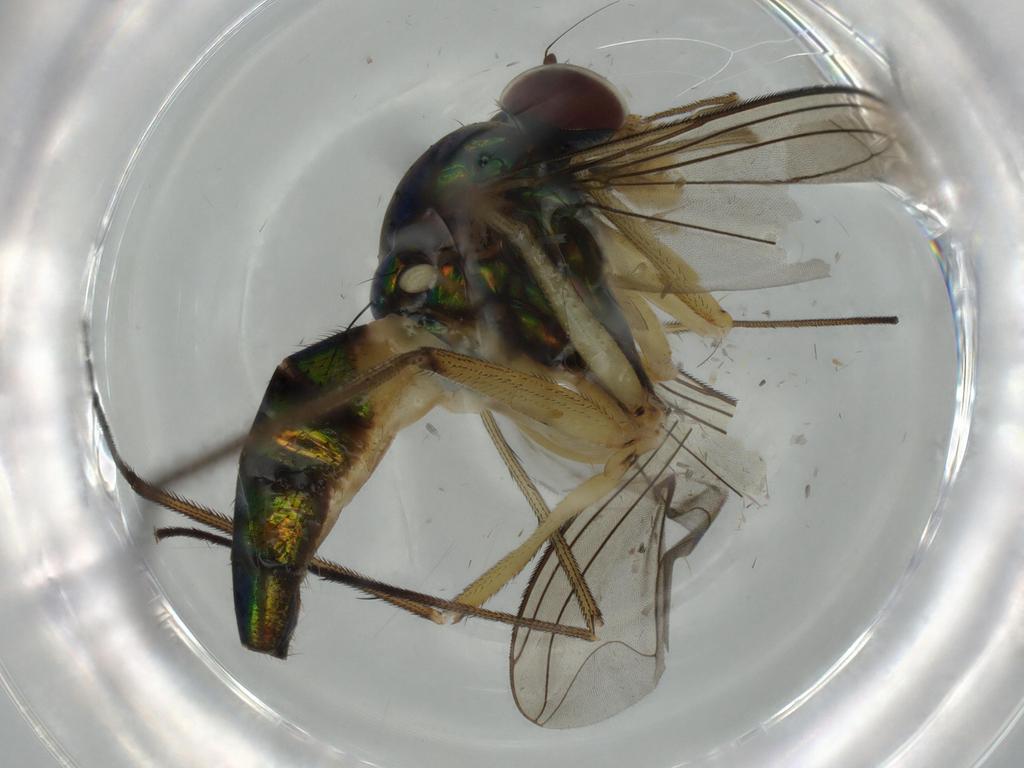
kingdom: Animalia
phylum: Arthropoda
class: Insecta
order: Diptera
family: Dolichopodidae
